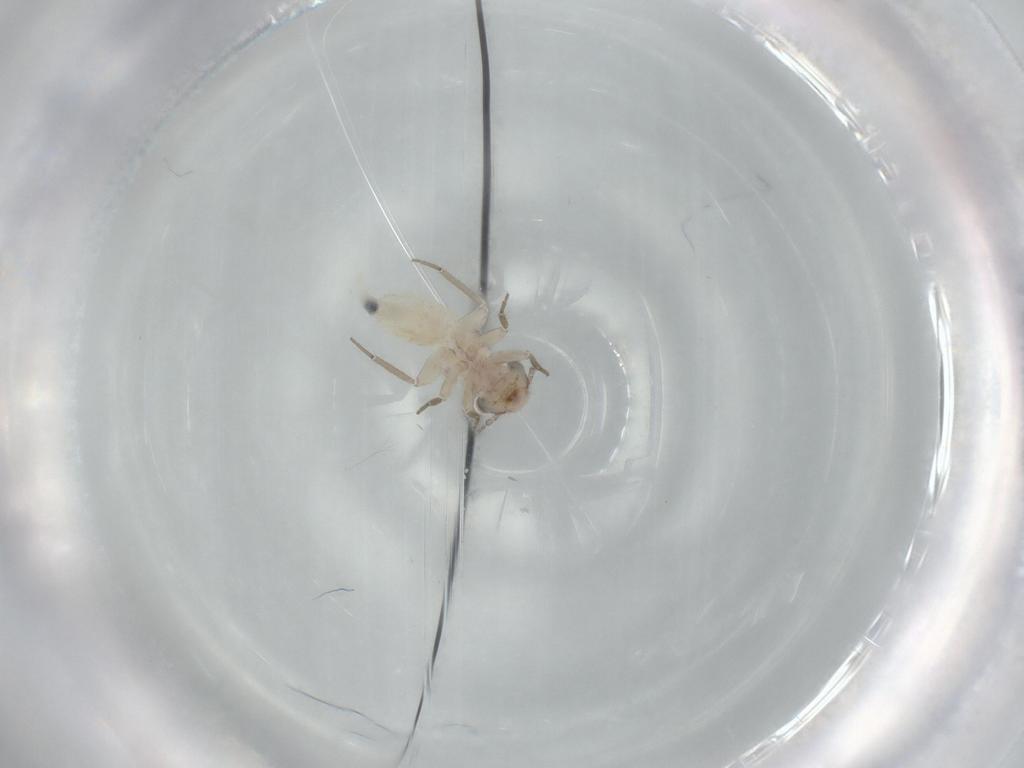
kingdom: Animalia
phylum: Arthropoda
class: Insecta
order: Psocodea
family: Lepidopsocidae
